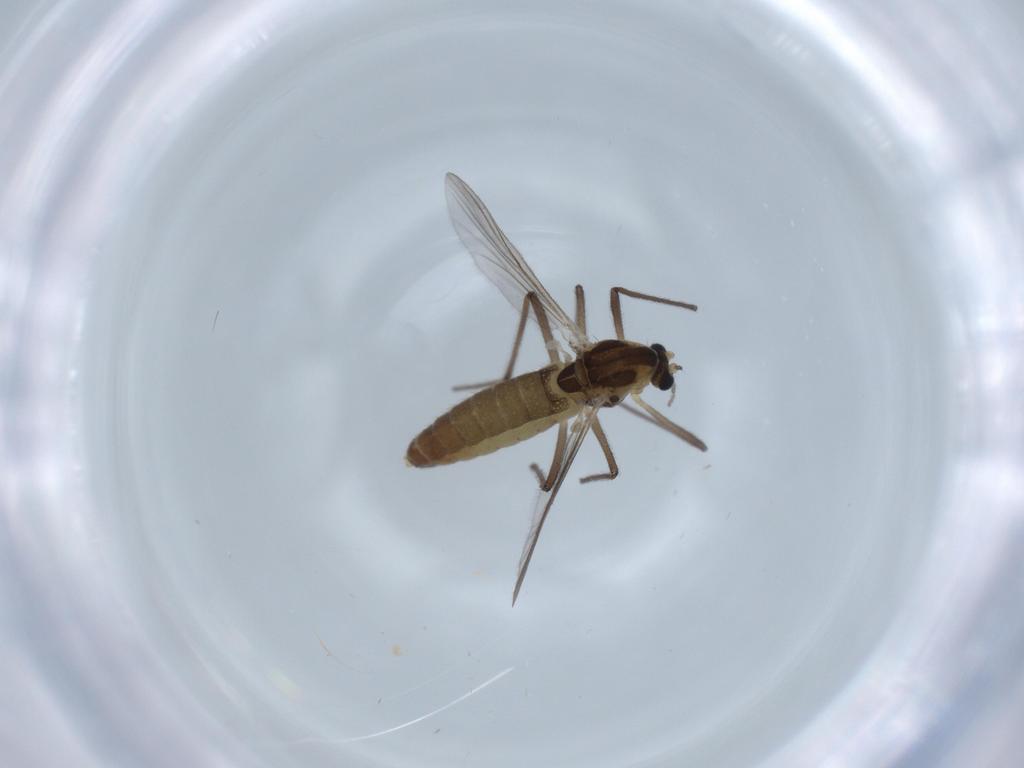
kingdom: Animalia
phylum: Arthropoda
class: Insecta
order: Diptera
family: Chironomidae
